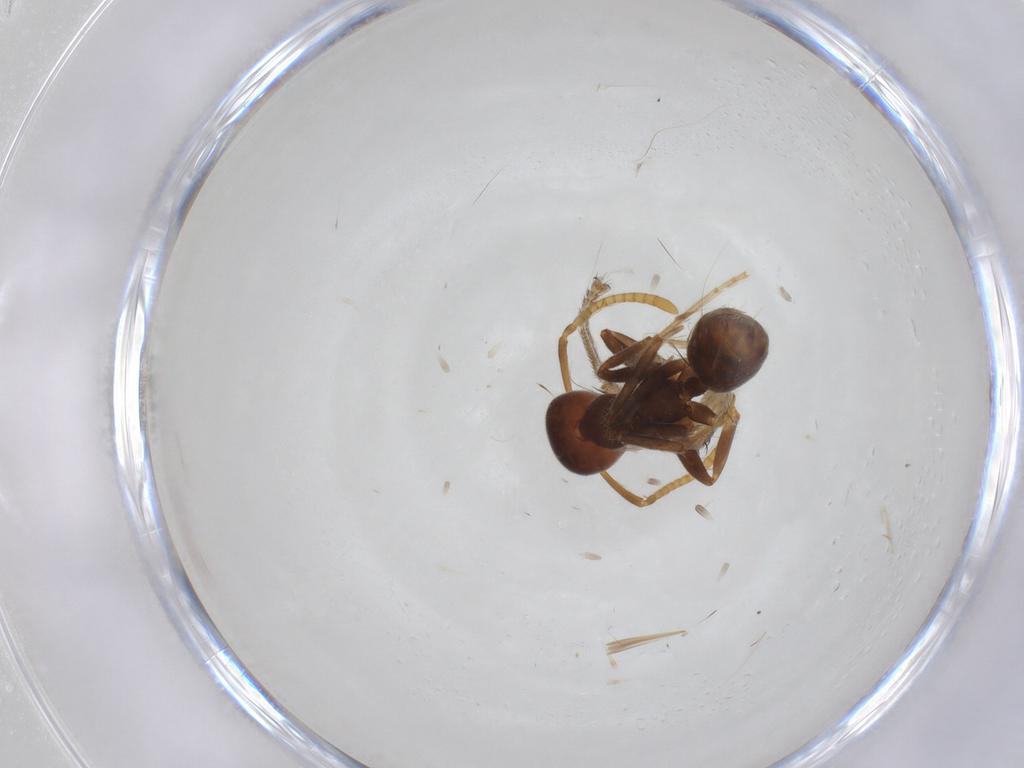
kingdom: Animalia
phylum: Arthropoda
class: Insecta
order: Hymenoptera
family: Formicidae
